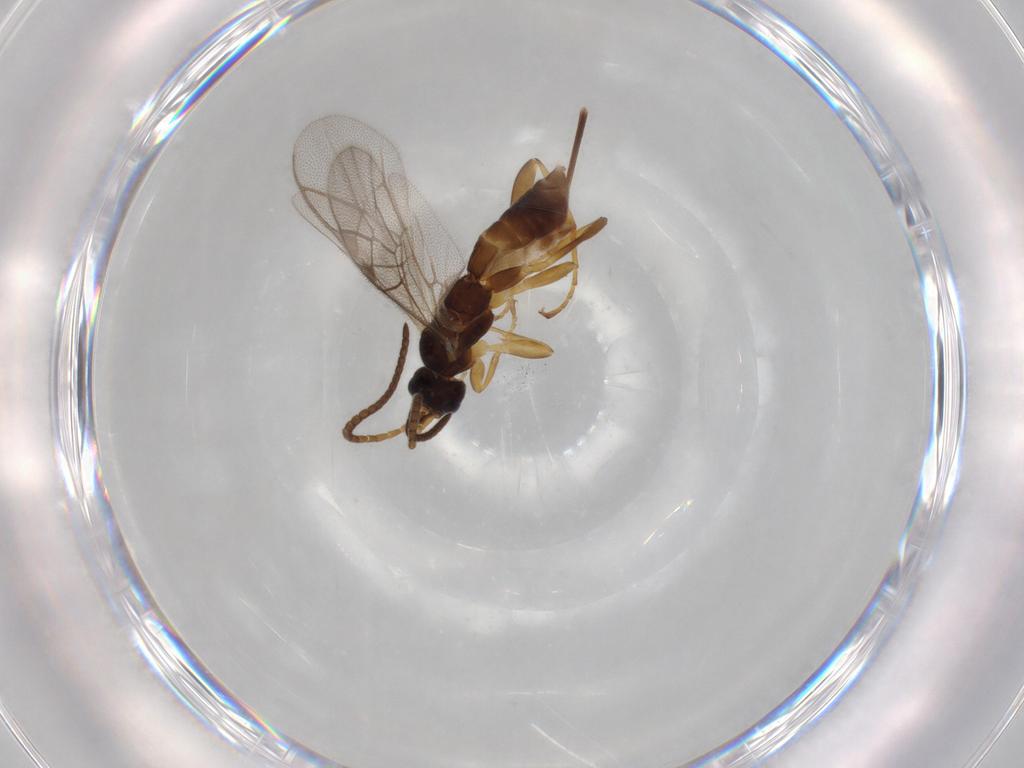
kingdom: Animalia
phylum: Arthropoda
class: Insecta
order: Hymenoptera
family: Ichneumonidae
